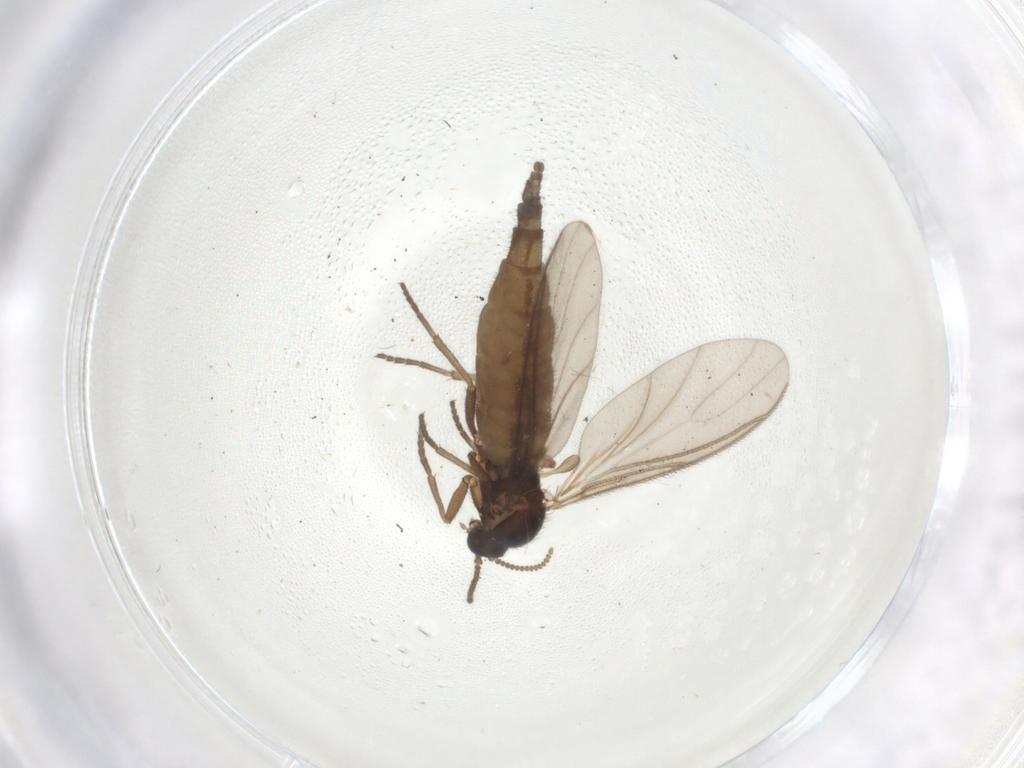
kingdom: Animalia
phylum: Arthropoda
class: Insecta
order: Diptera
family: Sciaridae
